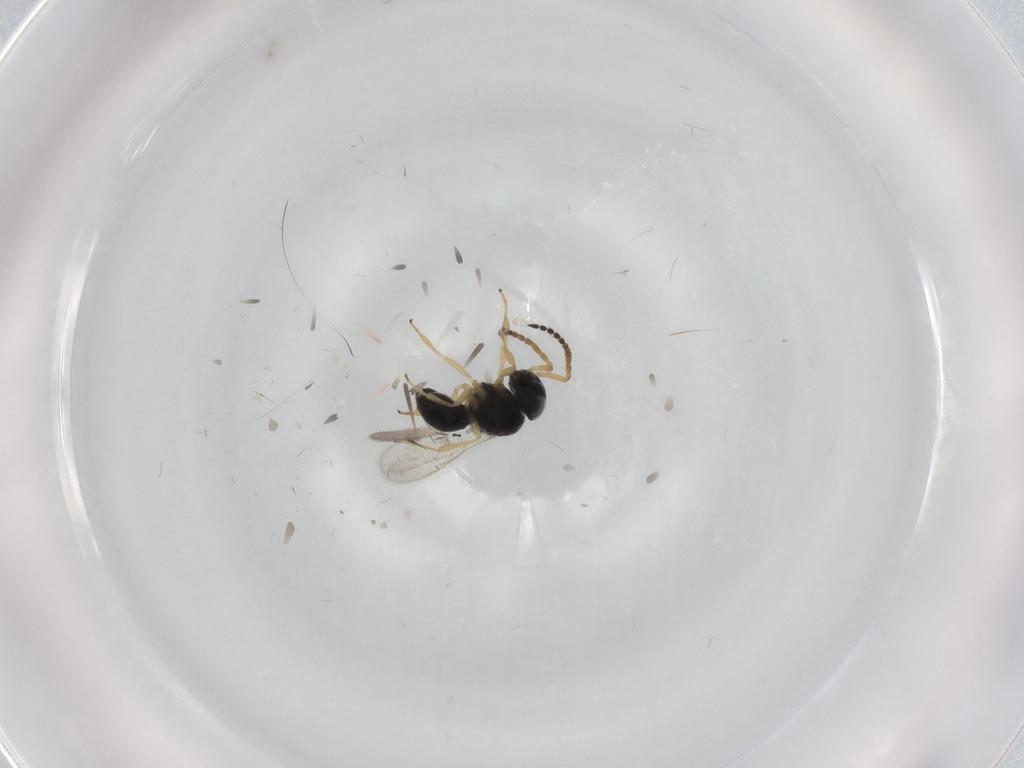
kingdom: Animalia
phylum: Arthropoda
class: Insecta
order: Hymenoptera
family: Scelionidae
